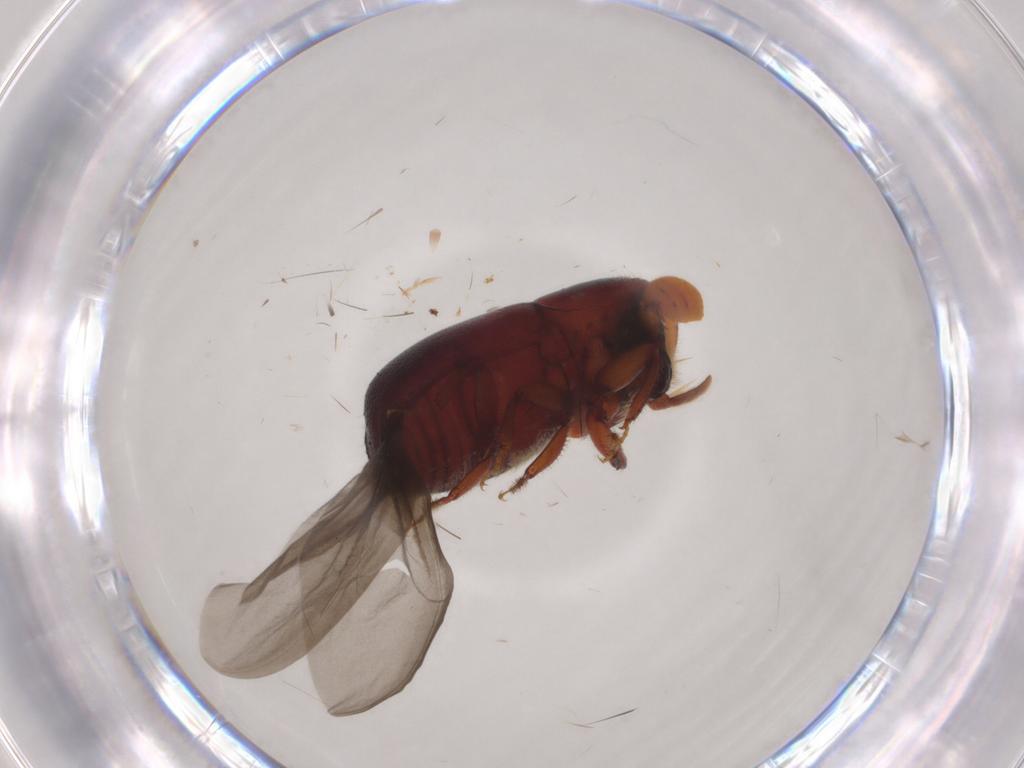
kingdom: Animalia
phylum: Arthropoda
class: Insecta
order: Coleoptera
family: Curculionidae
